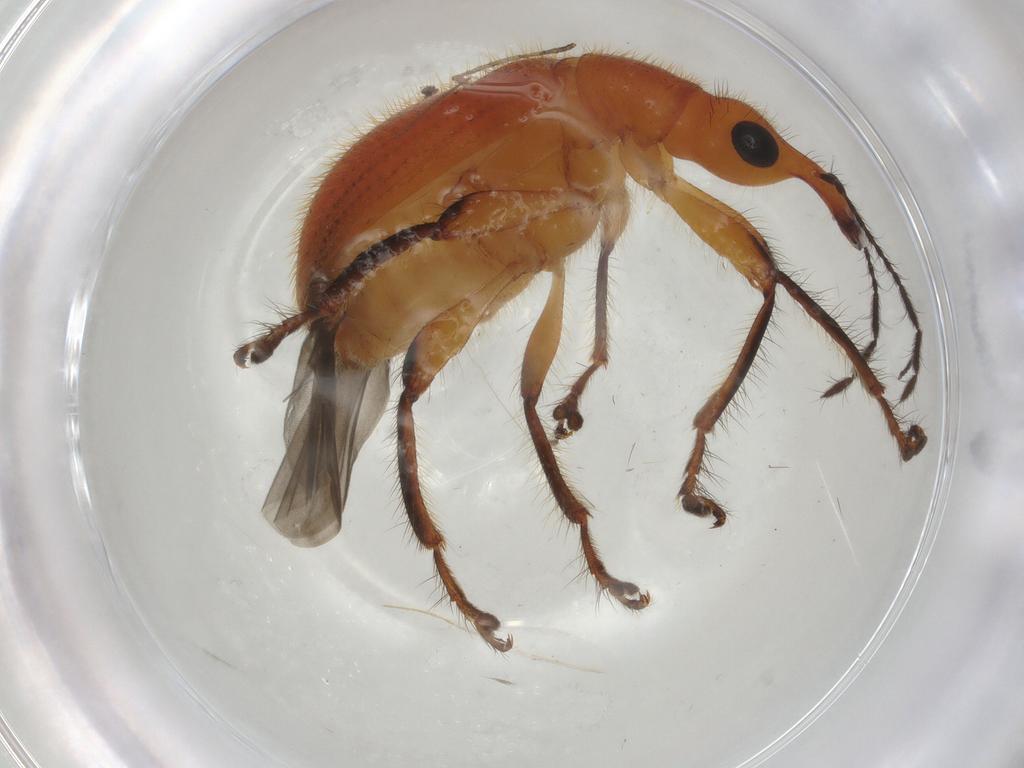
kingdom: Animalia
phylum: Arthropoda
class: Insecta
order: Coleoptera
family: Attelabidae
